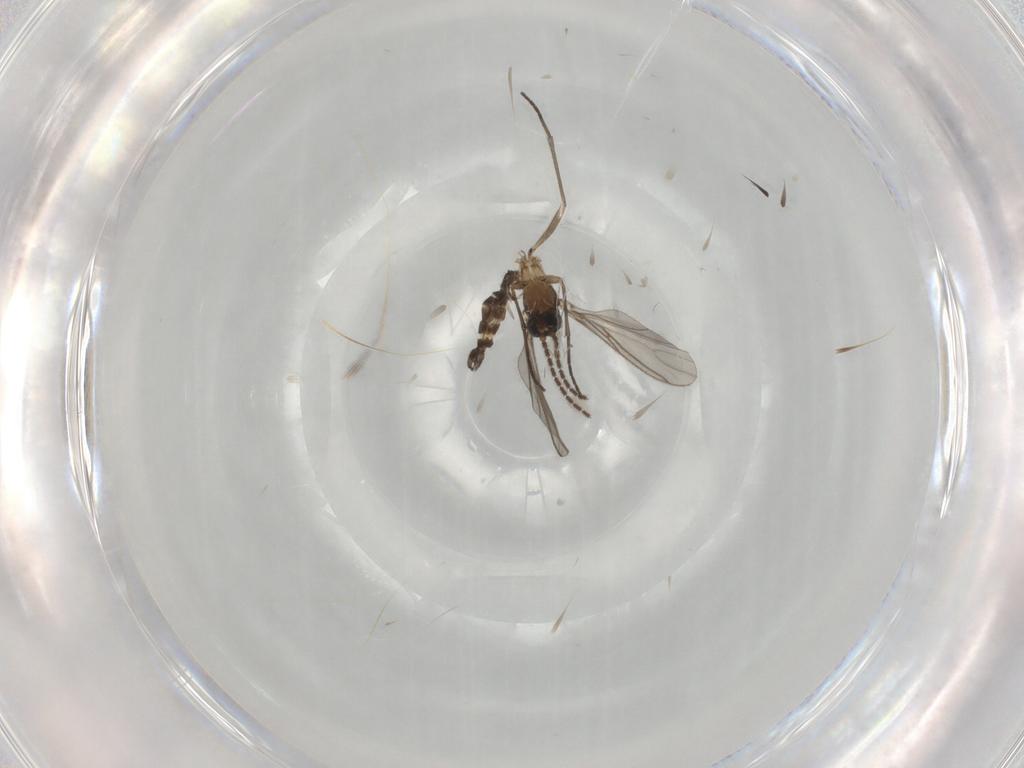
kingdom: Animalia
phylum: Arthropoda
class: Insecta
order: Diptera
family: Sciaridae
